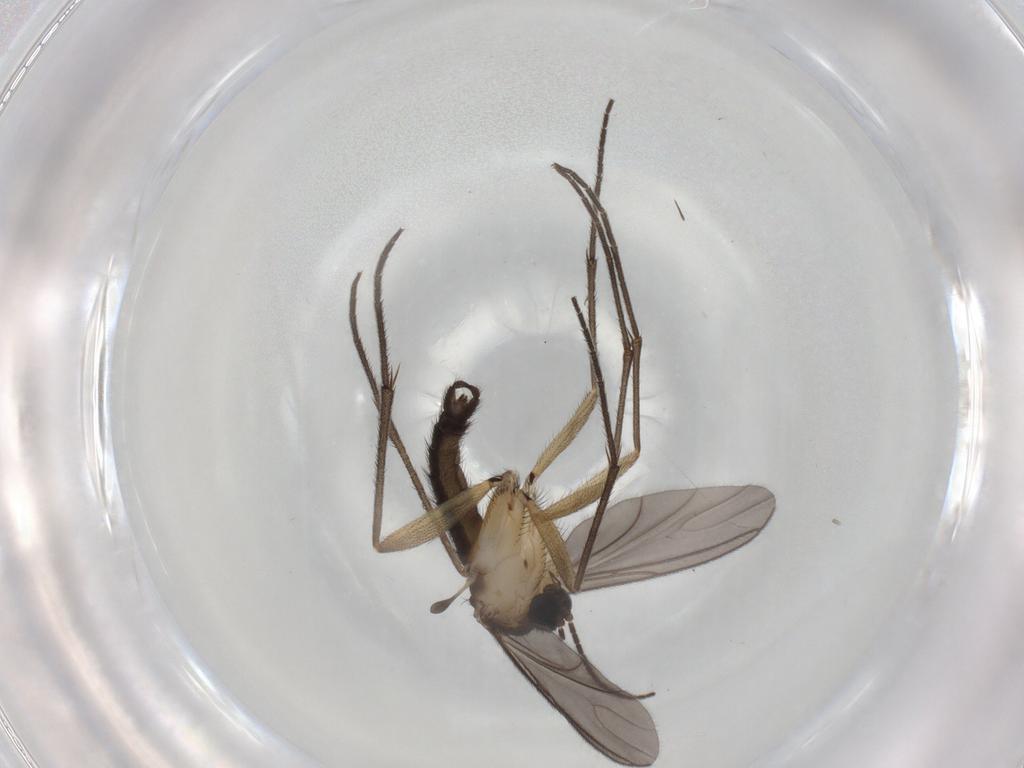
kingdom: Animalia
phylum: Arthropoda
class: Insecta
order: Diptera
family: Sciaridae
